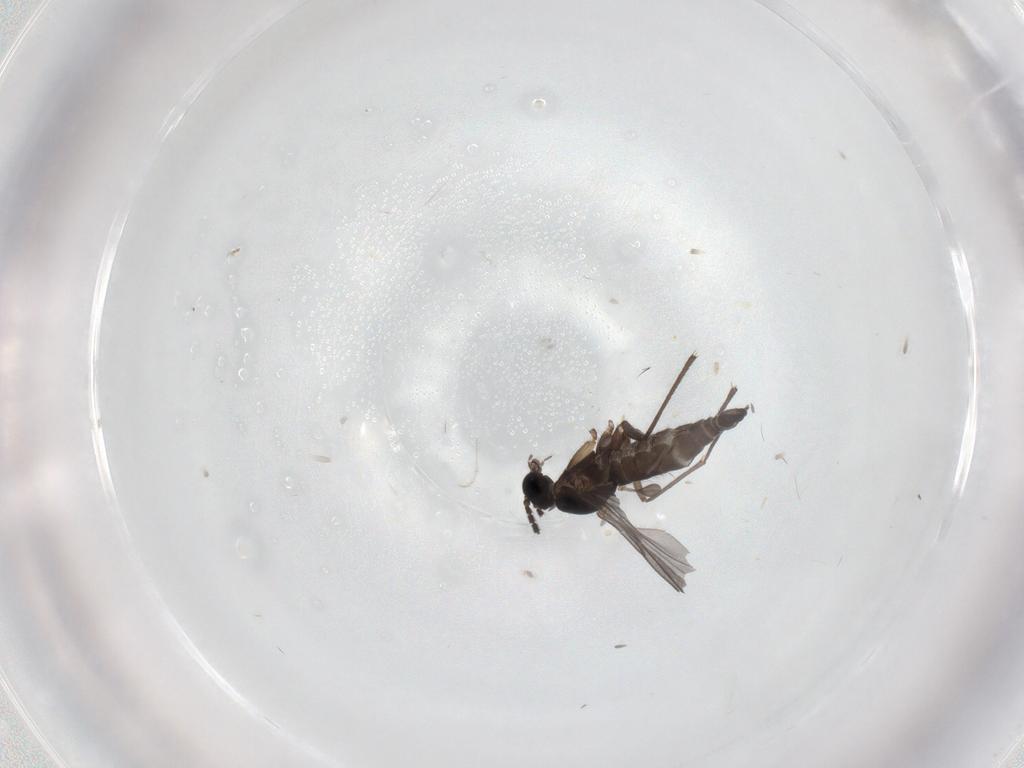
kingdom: Animalia
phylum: Arthropoda
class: Insecta
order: Diptera
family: Sciaridae
